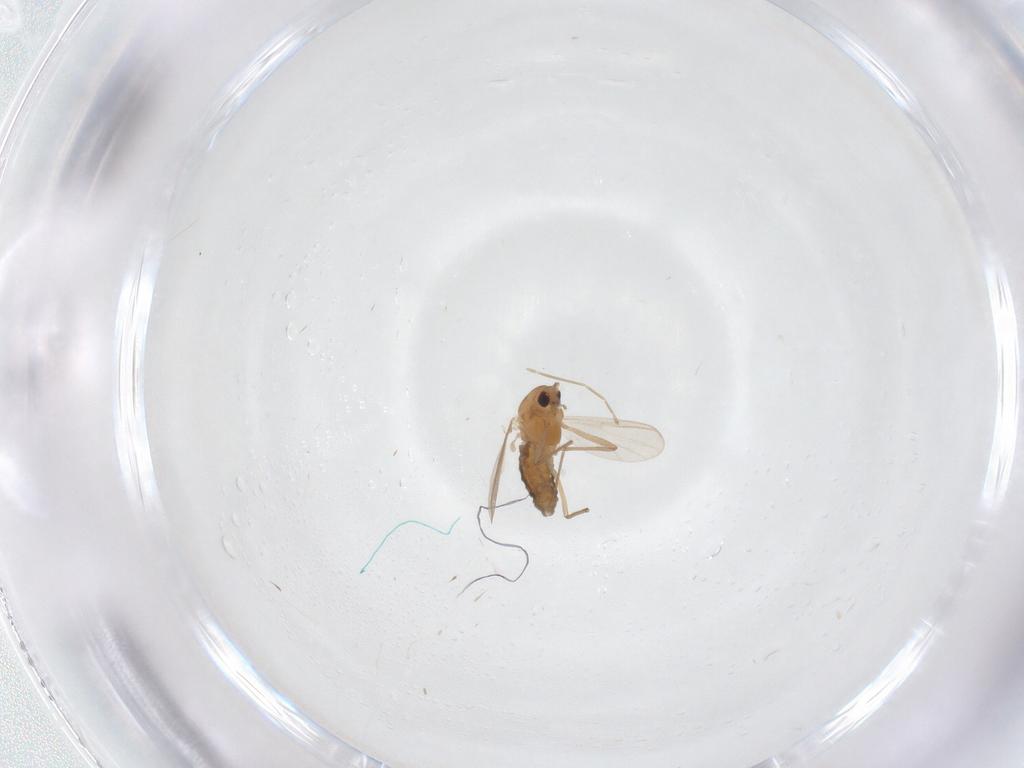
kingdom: Animalia
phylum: Arthropoda
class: Insecta
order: Diptera
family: Chironomidae
